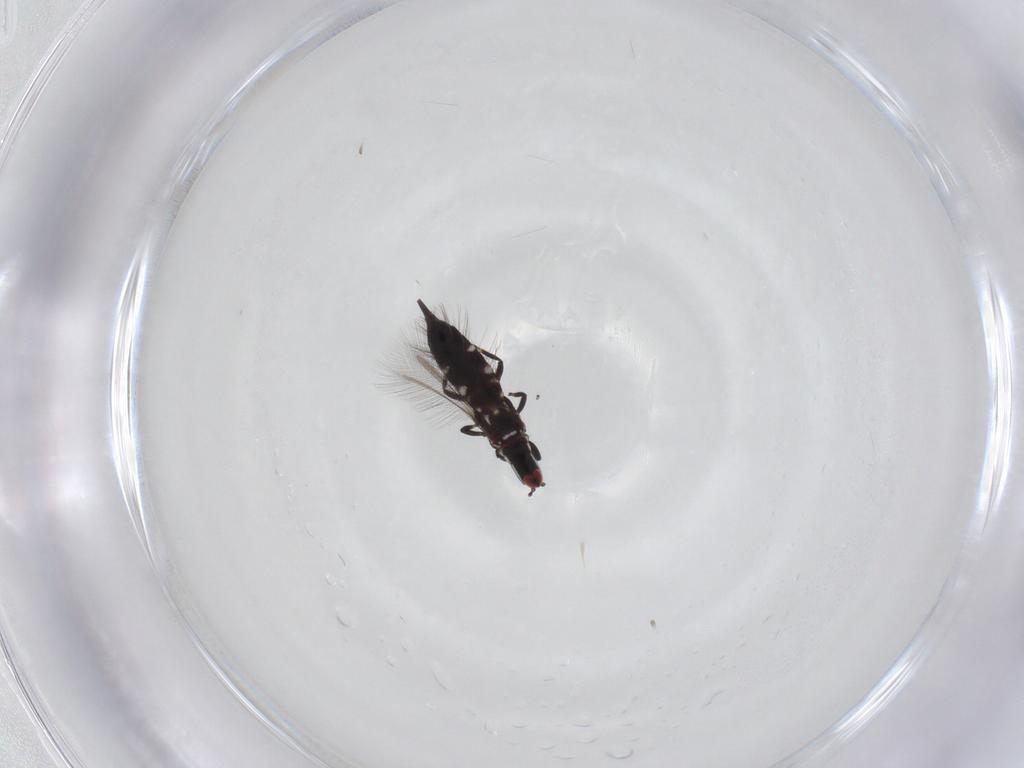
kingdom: Animalia
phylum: Arthropoda
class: Insecta
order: Thysanoptera
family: Phlaeothripidae
